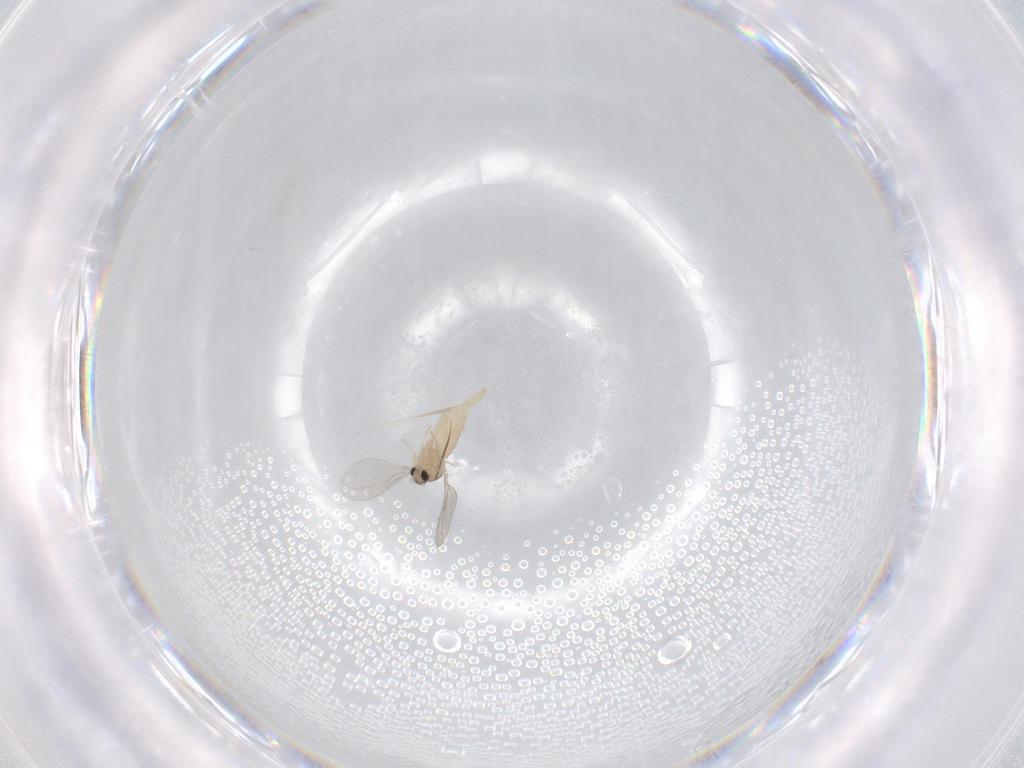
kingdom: Animalia
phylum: Arthropoda
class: Insecta
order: Diptera
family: Cecidomyiidae
